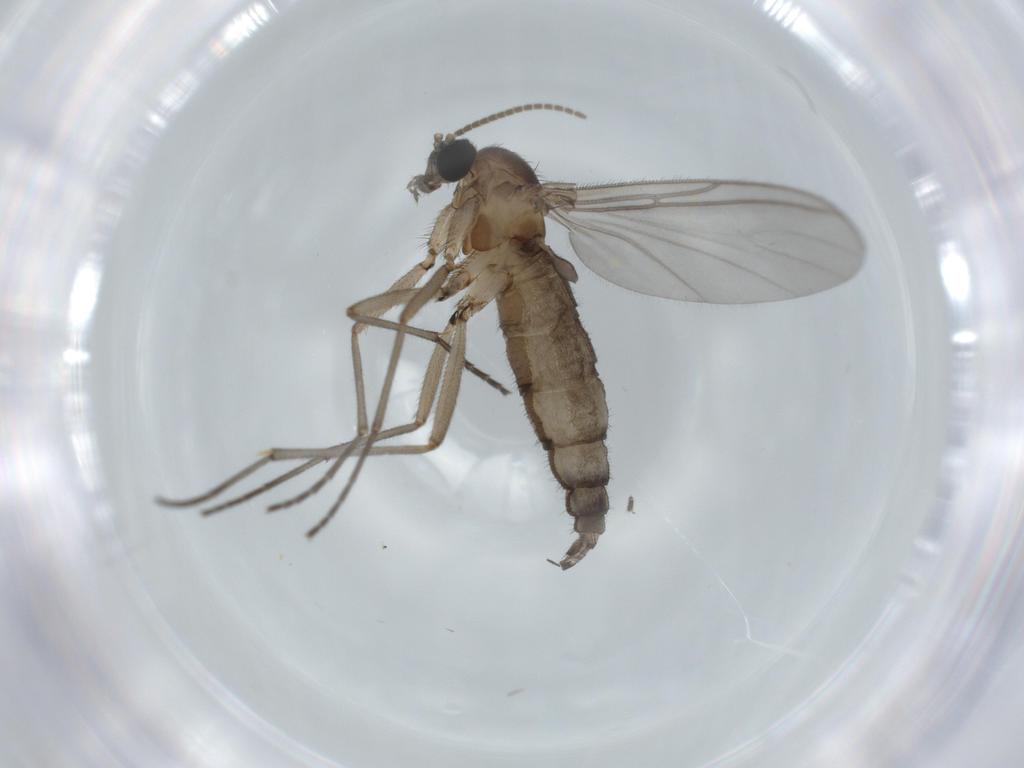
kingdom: Animalia
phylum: Arthropoda
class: Insecta
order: Diptera
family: Sciaridae
